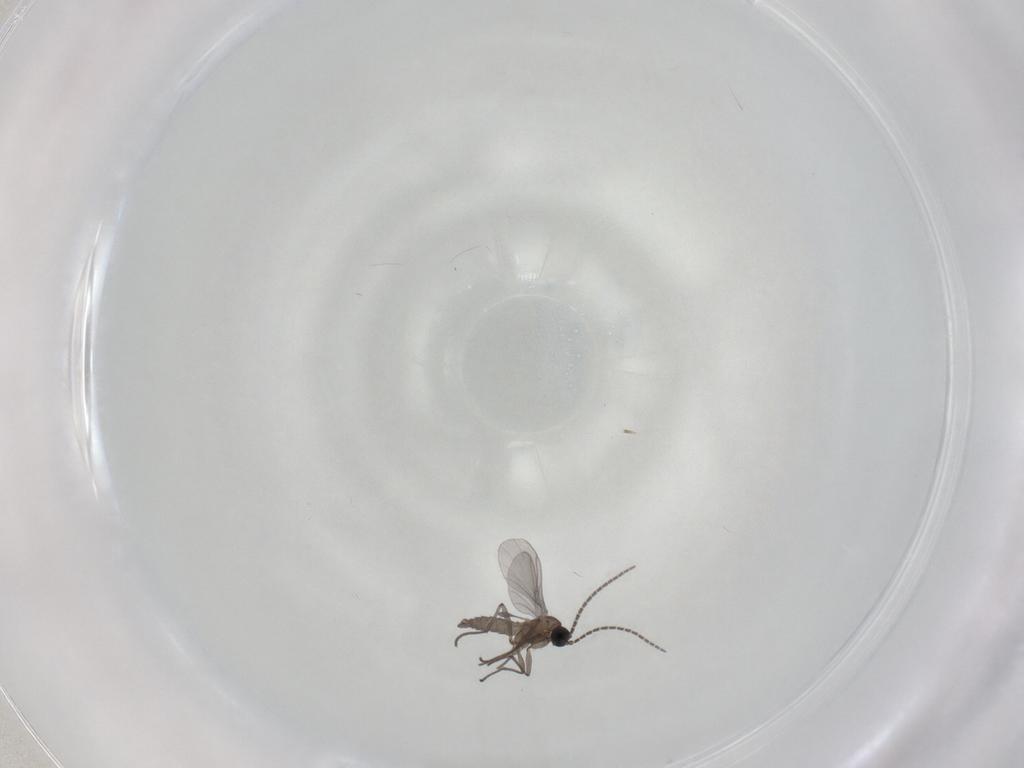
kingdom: Animalia
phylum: Arthropoda
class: Insecta
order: Diptera
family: Sciaridae
